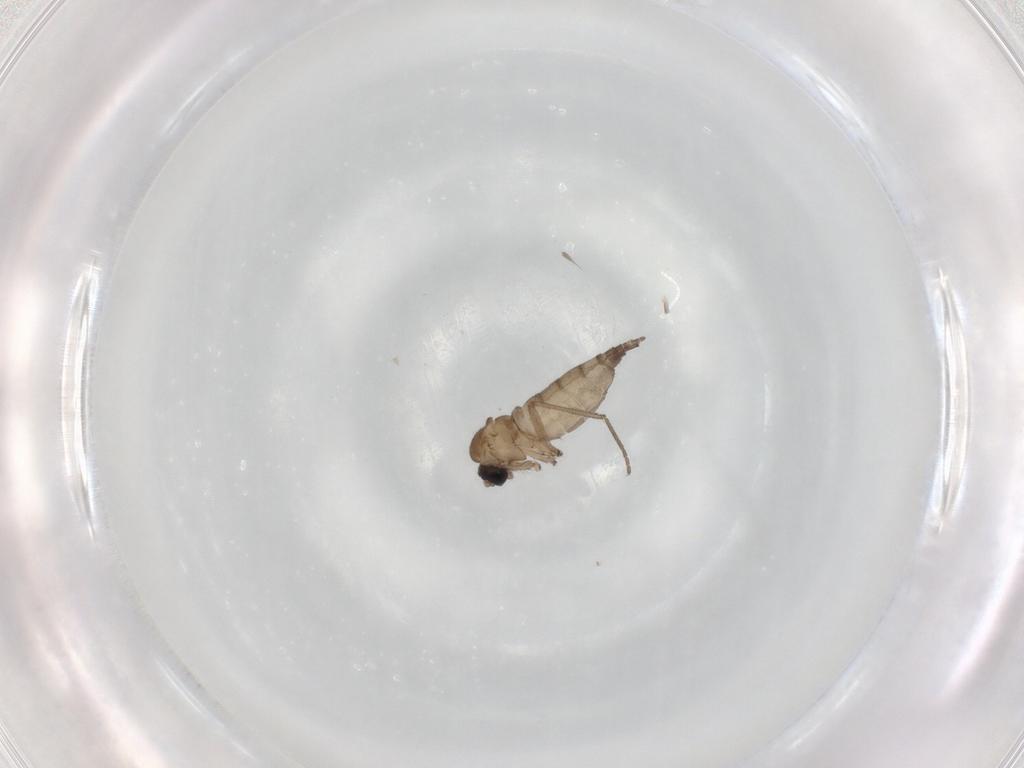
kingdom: Animalia
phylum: Arthropoda
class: Insecta
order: Diptera
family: Sciaridae
